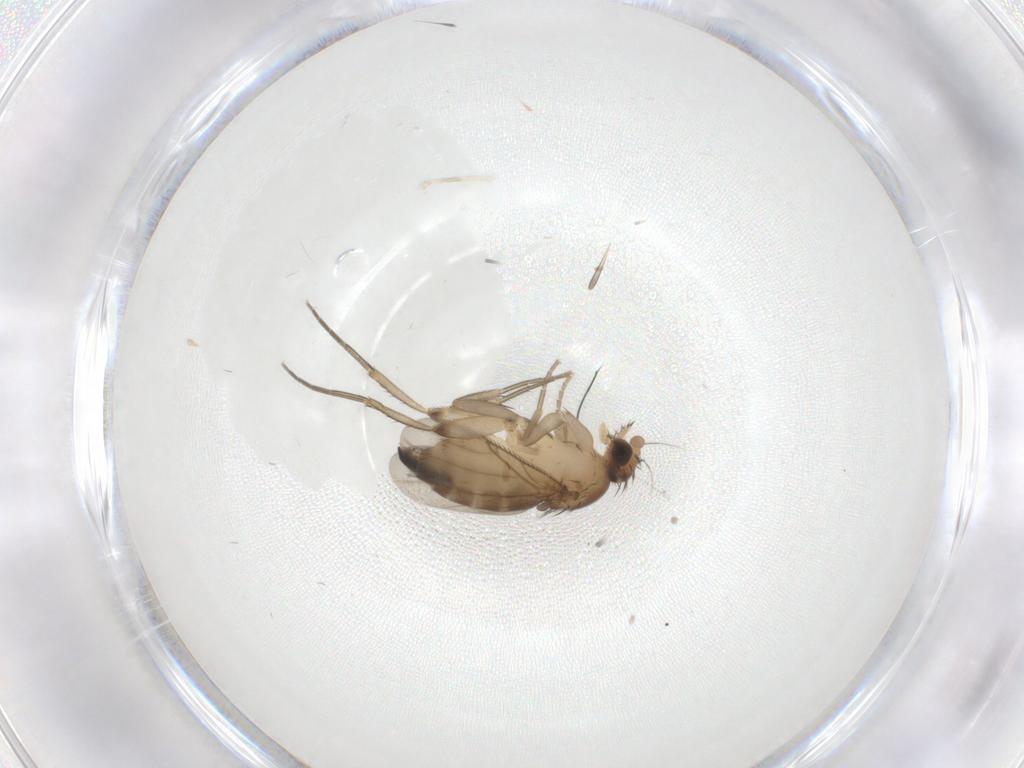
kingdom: Animalia
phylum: Arthropoda
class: Insecta
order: Diptera
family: Phoridae
